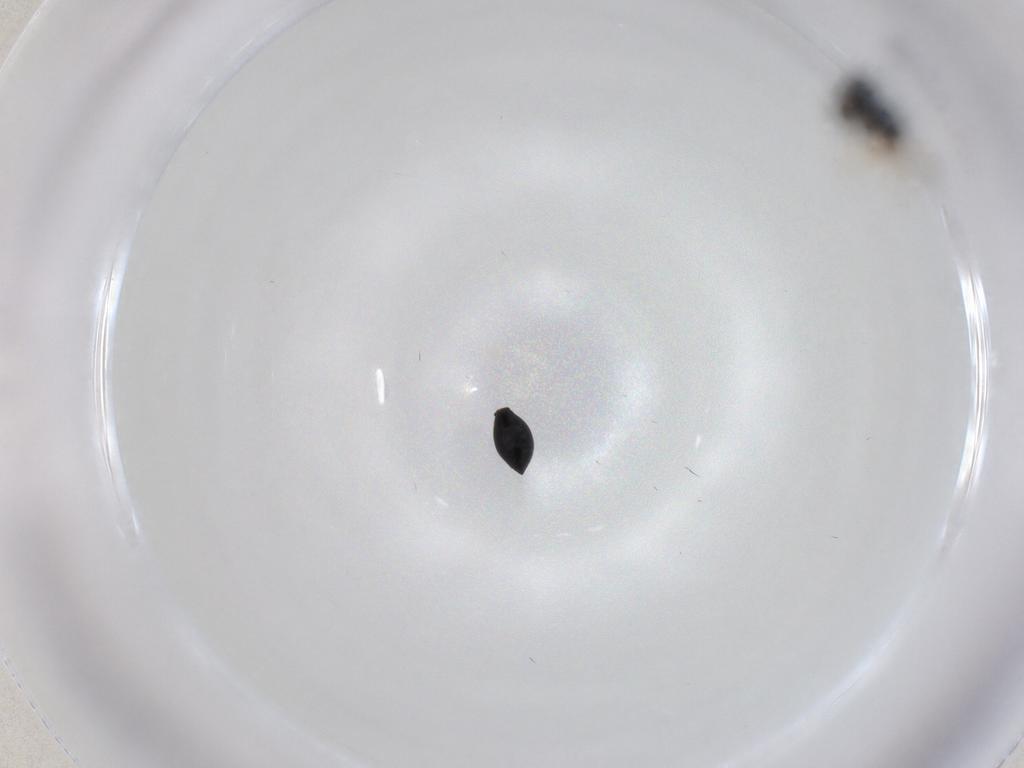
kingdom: Animalia
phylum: Arthropoda
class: Insecta
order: Hymenoptera
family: Scelionidae
